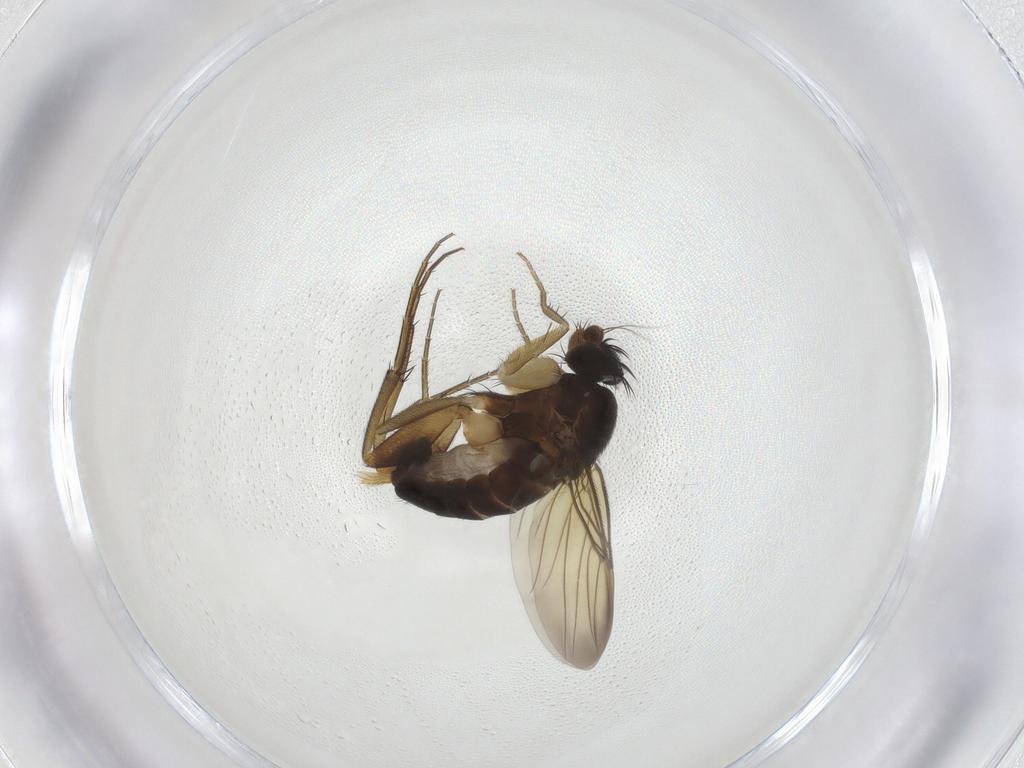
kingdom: Animalia
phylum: Arthropoda
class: Insecta
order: Diptera
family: Phoridae
